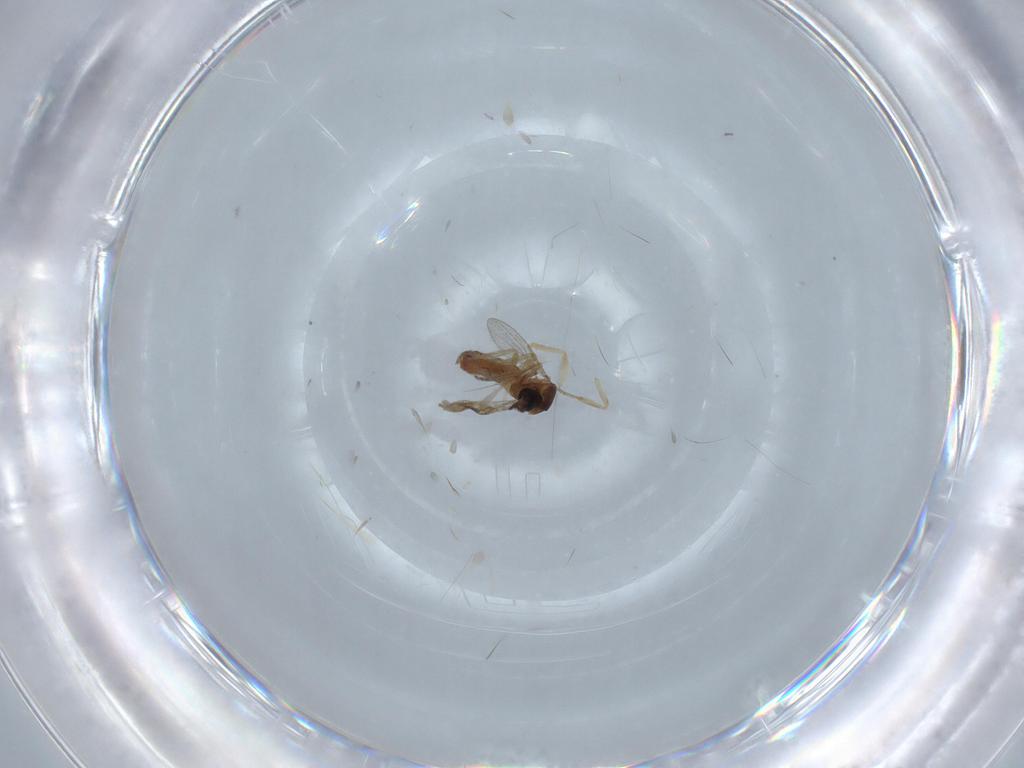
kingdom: Animalia
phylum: Arthropoda
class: Insecta
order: Diptera
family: Ceratopogonidae
